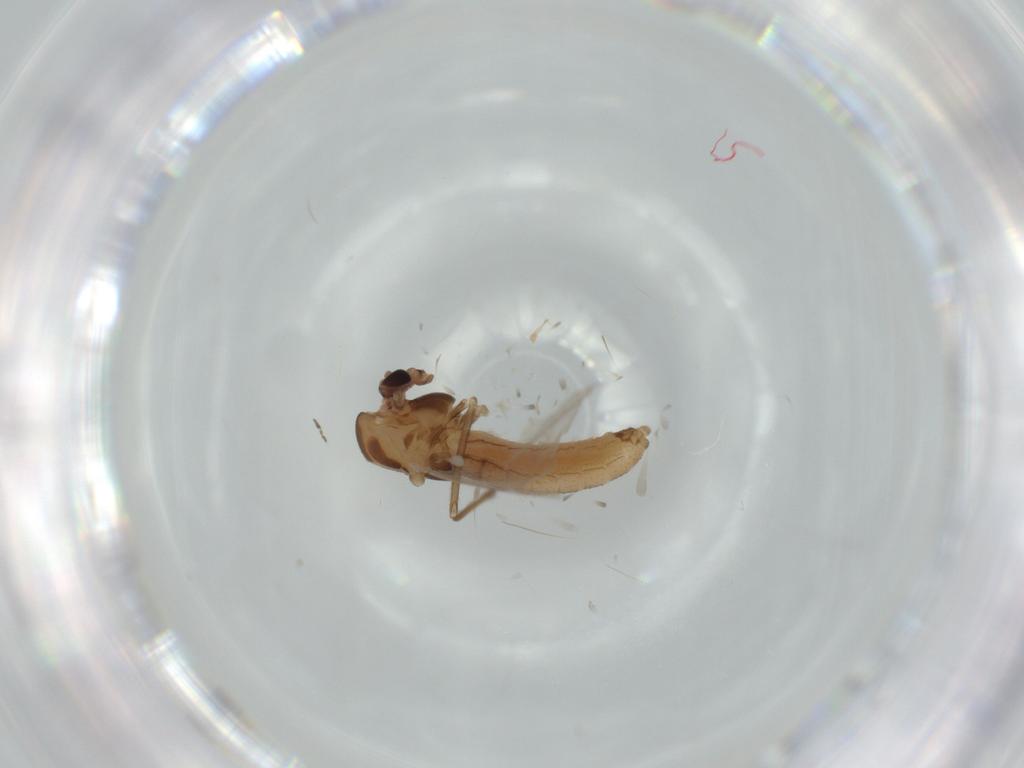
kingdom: Animalia
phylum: Arthropoda
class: Insecta
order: Diptera
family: Chironomidae
